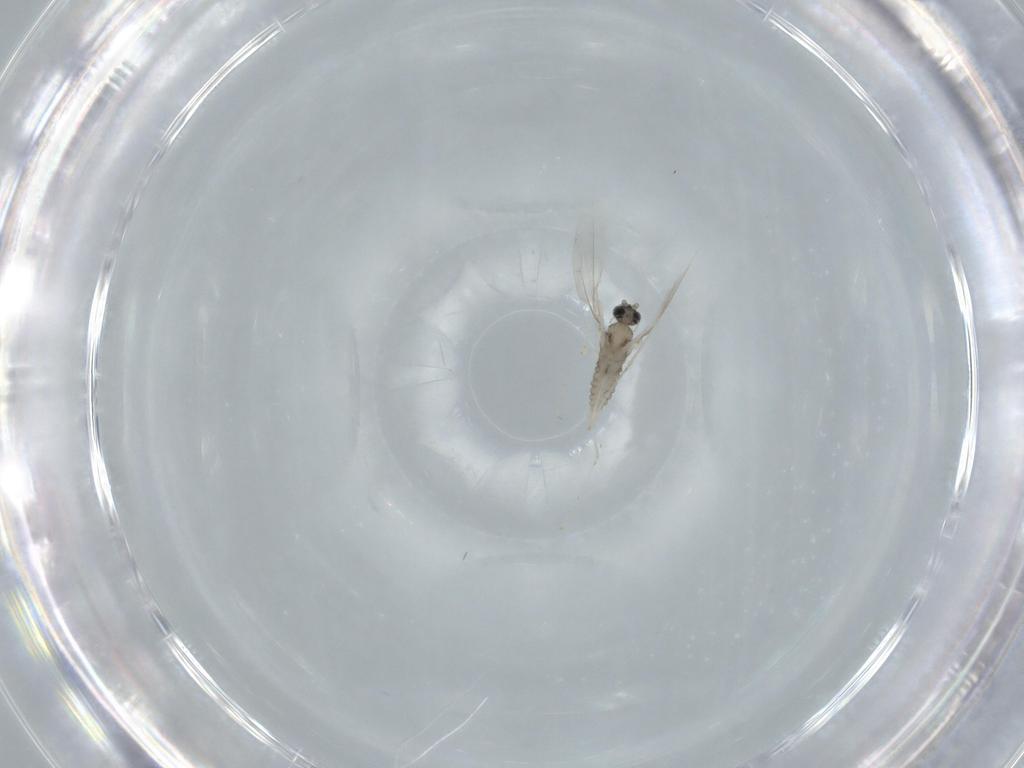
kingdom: Animalia
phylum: Arthropoda
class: Insecta
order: Diptera
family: Cecidomyiidae
